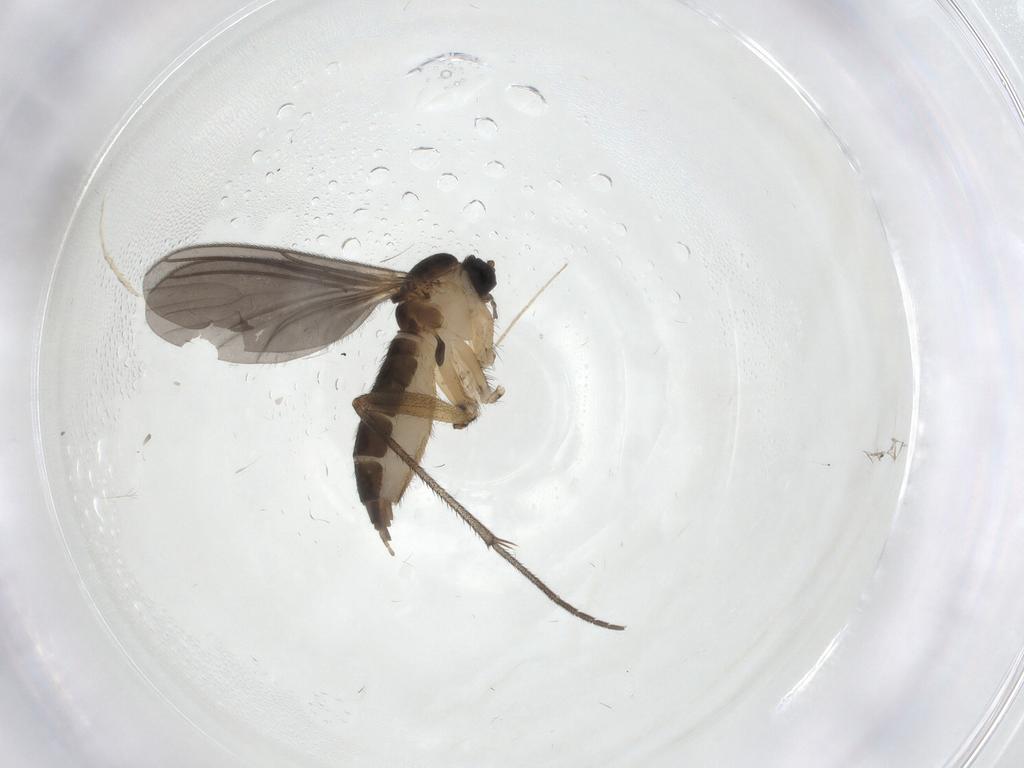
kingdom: Animalia
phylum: Arthropoda
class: Insecta
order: Diptera
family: Sciaridae
